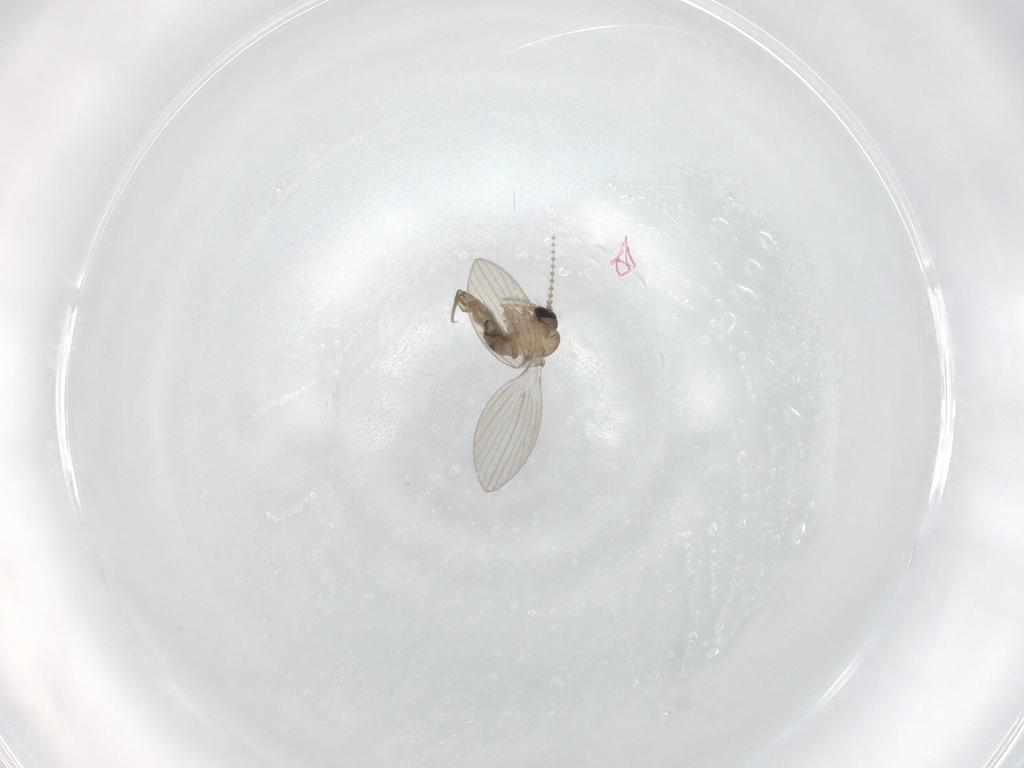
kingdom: Animalia
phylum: Arthropoda
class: Insecta
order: Diptera
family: Psychodidae
